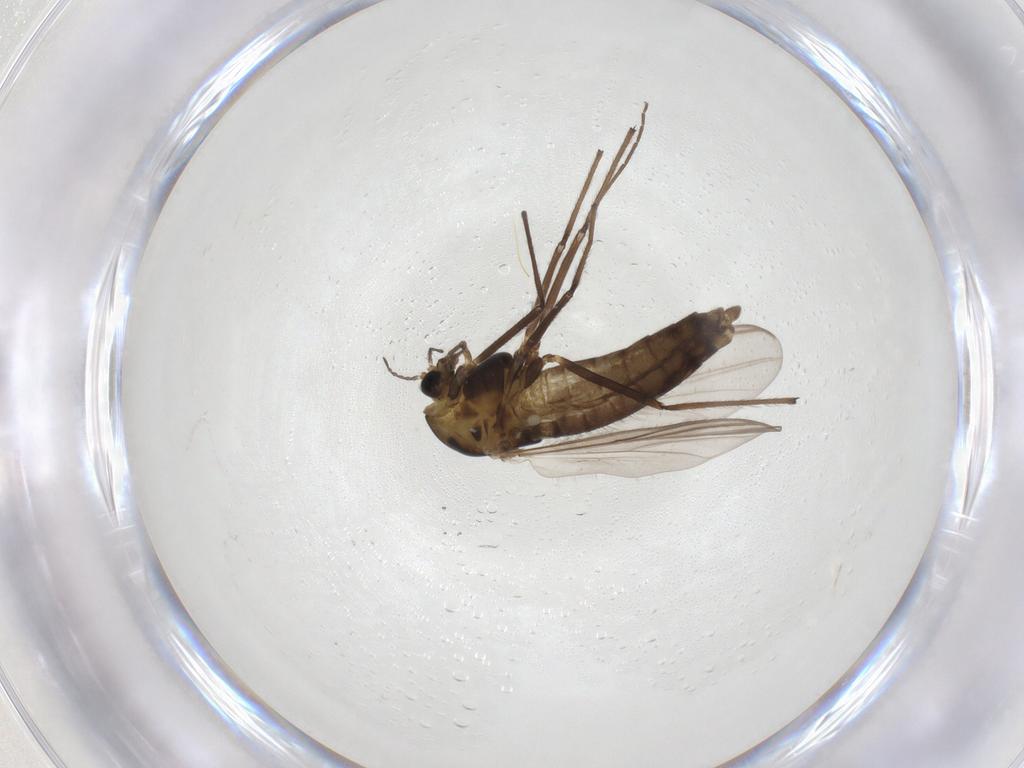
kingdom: Animalia
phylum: Arthropoda
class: Insecta
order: Diptera
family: Chironomidae
